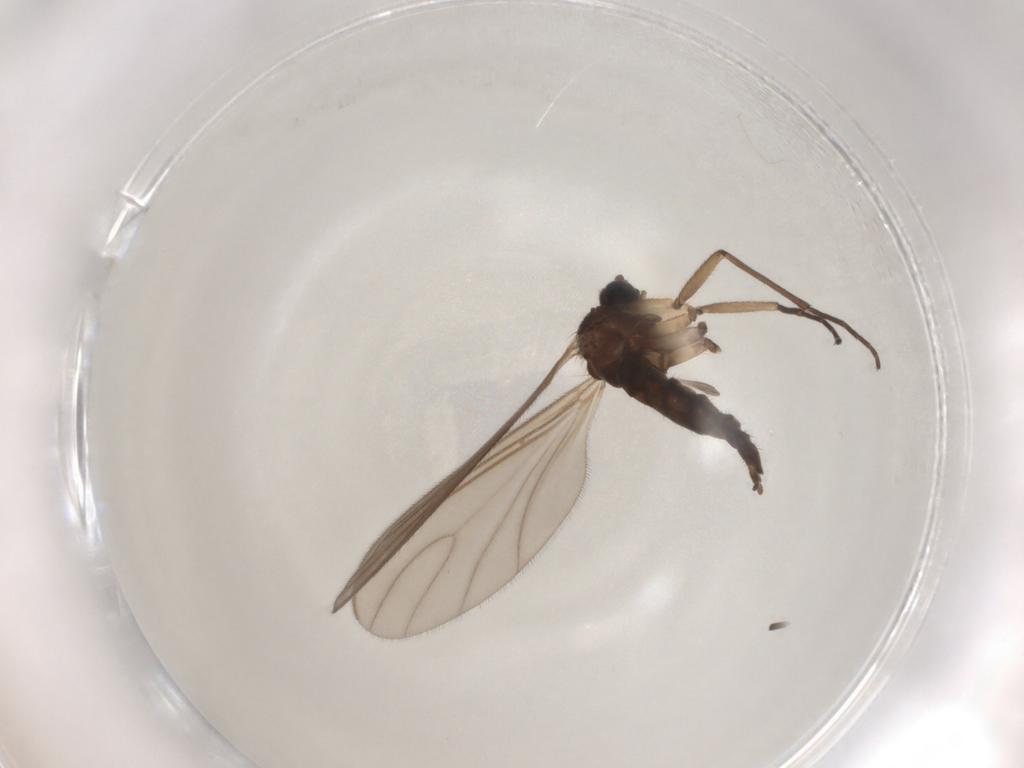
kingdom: Animalia
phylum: Arthropoda
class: Insecta
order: Diptera
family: Sciaridae
